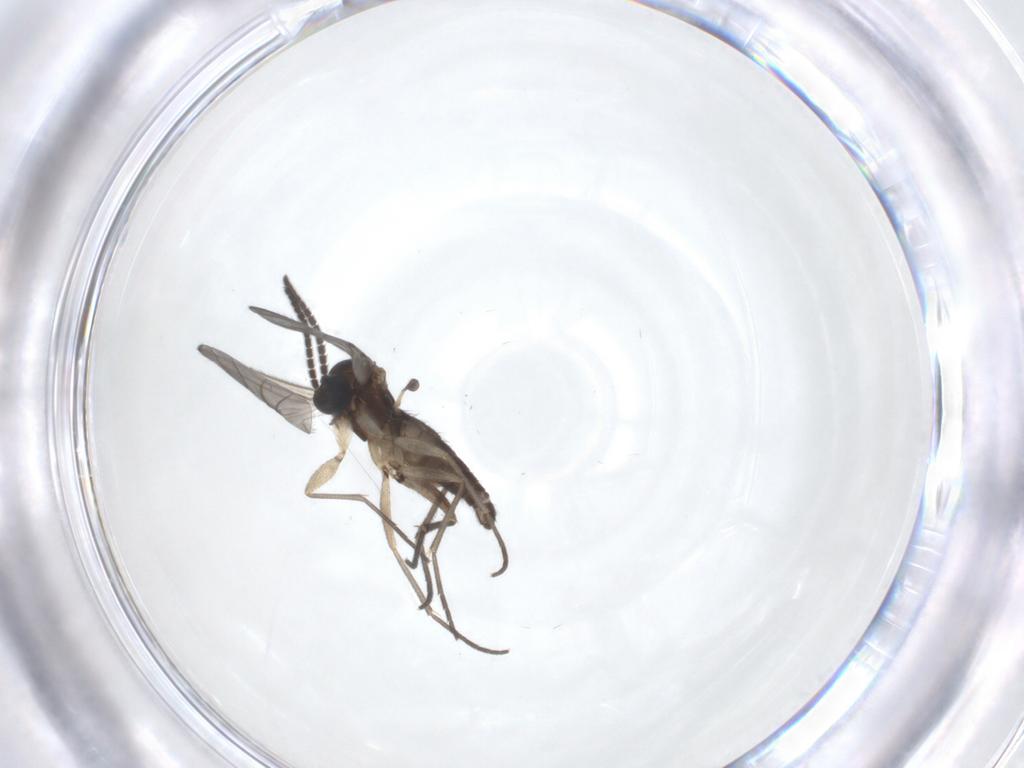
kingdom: Animalia
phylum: Arthropoda
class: Insecta
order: Diptera
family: Sciaridae
